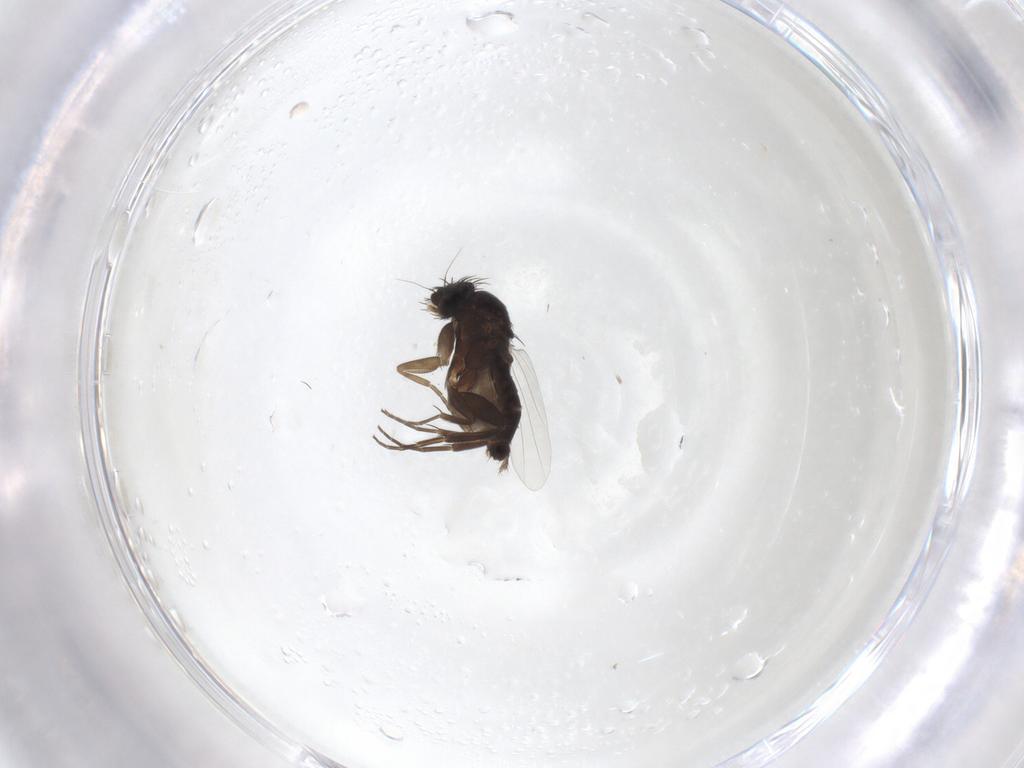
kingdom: Animalia
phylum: Arthropoda
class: Insecta
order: Diptera
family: Phoridae
